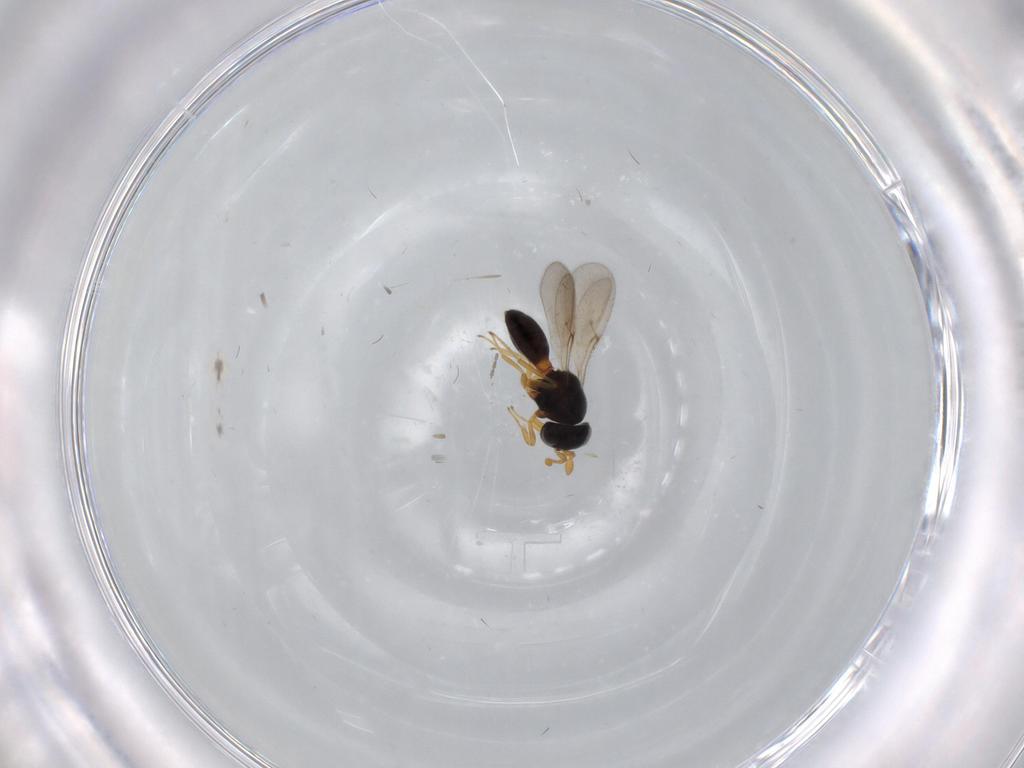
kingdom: Animalia
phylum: Arthropoda
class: Insecta
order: Hymenoptera
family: Scelionidae
